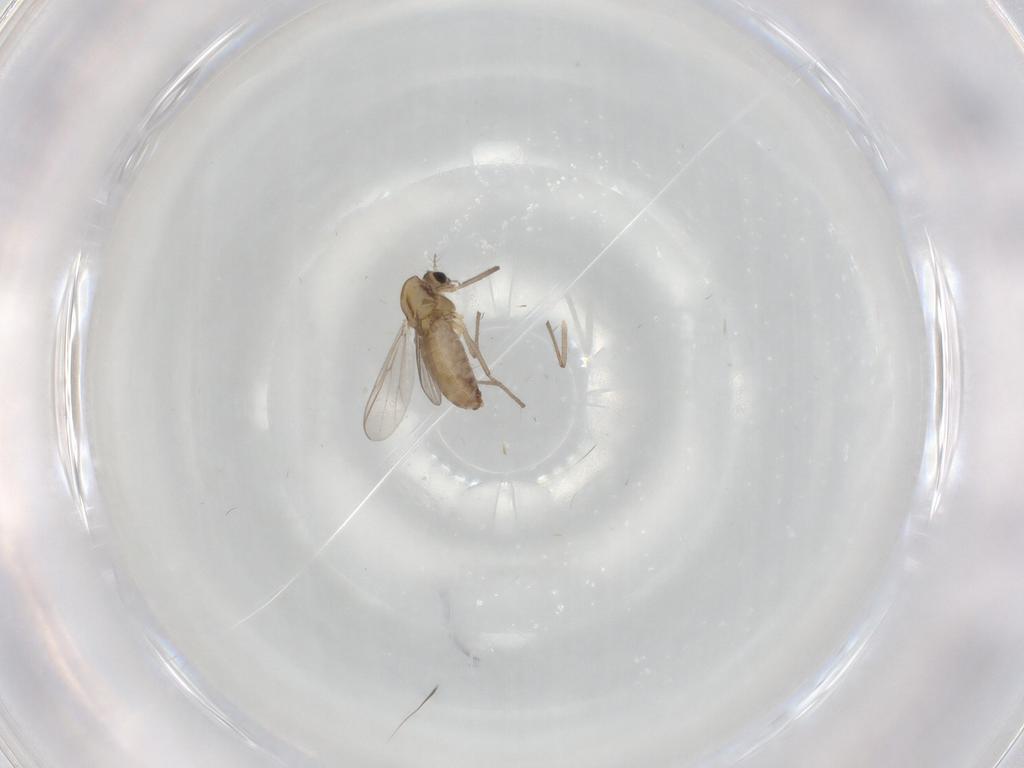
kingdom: Animalia
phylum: Arthropoda
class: Insecta
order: Diptera
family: Chironomidae
